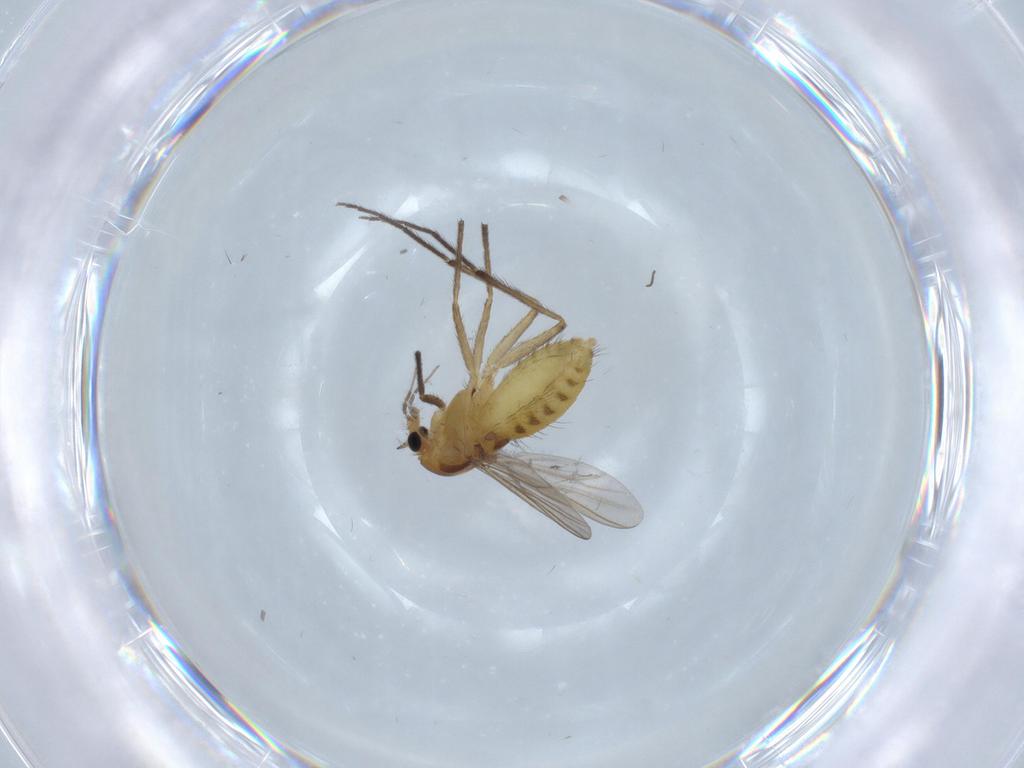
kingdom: Animalia
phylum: Arthropoda
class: Insecta
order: Diptera
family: Chironomidae
